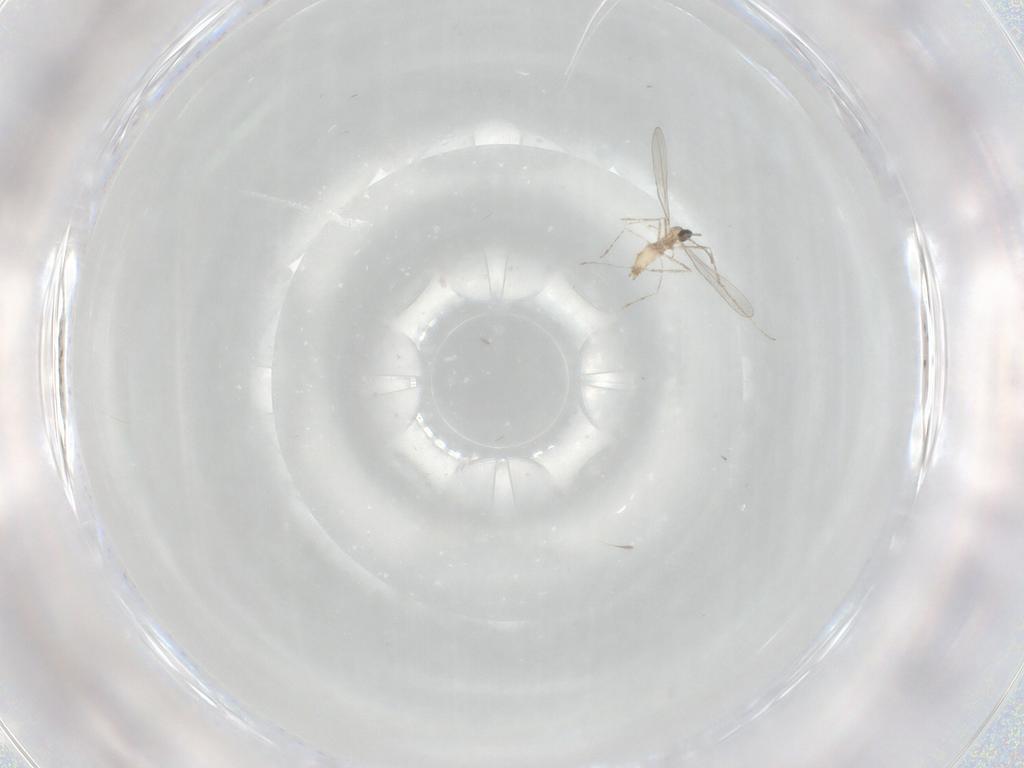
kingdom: Animalia
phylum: Arthropoda
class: Insecta
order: Diptera
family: Cecidomyiidae
